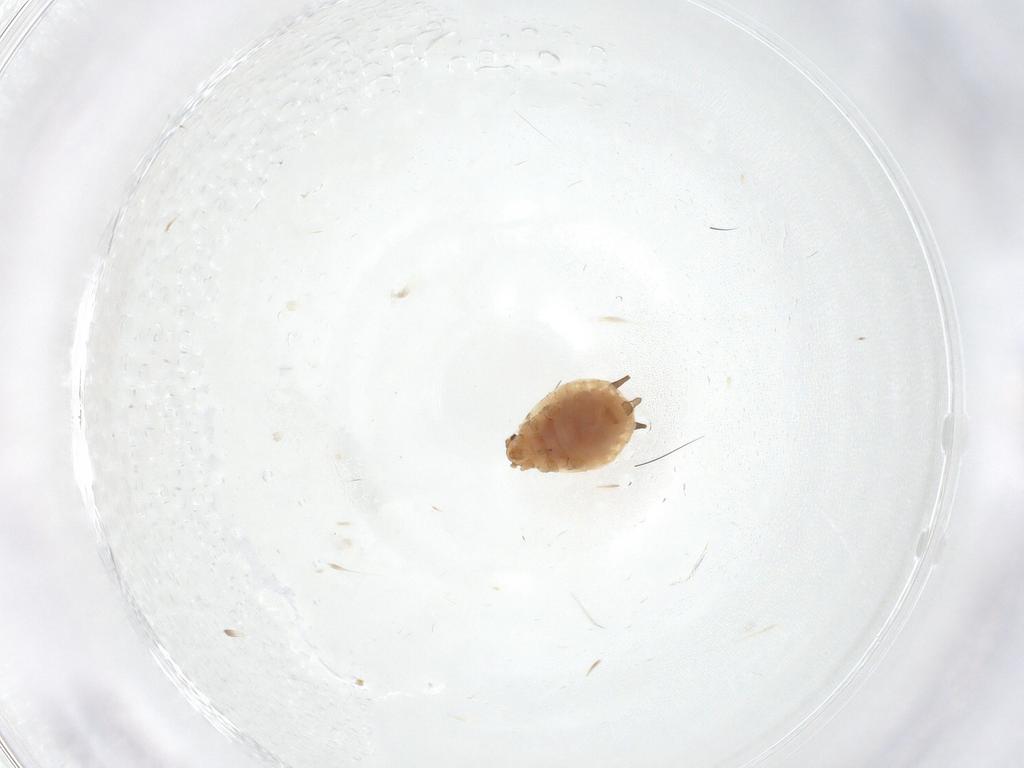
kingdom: Animalia
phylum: Arthropoda
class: Insecta
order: Hemiptera
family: Aphididae
